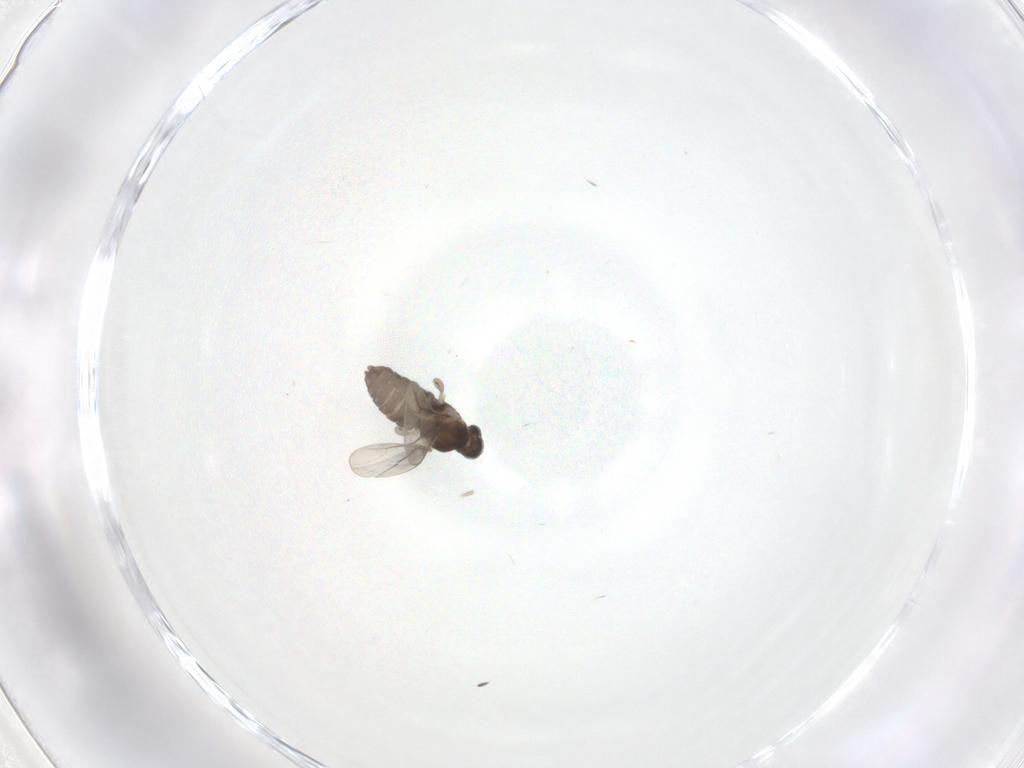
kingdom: Animalia
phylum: Arthropoda
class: Insecta
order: Diptera
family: Cecidomyiidae
